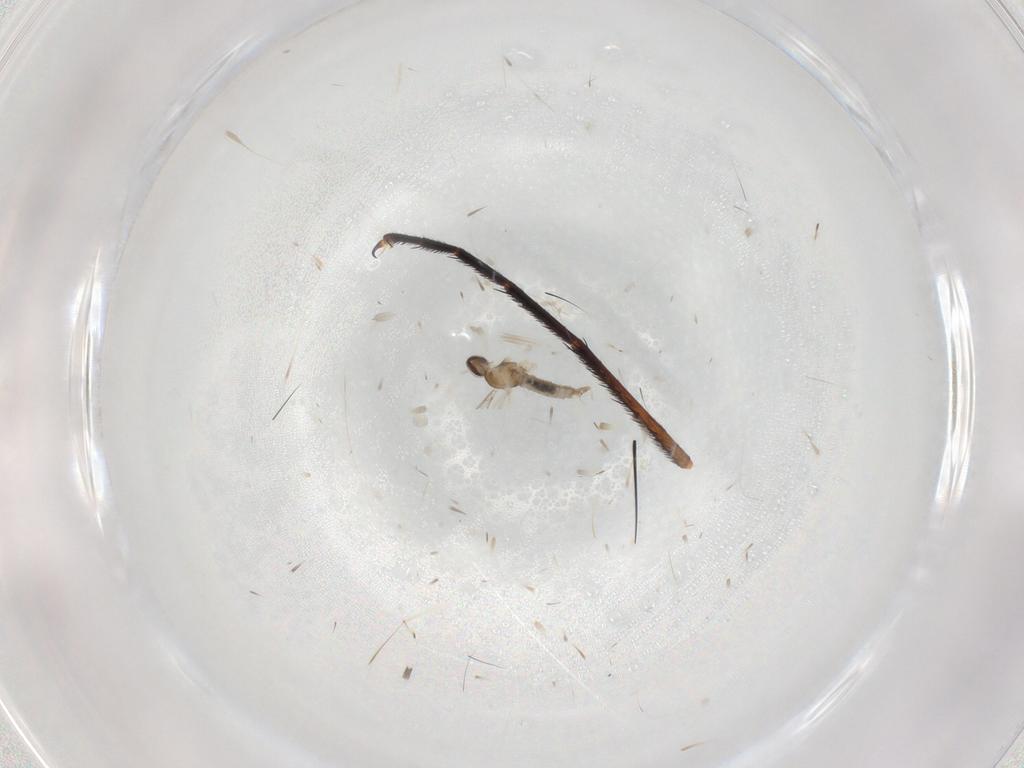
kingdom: Animalia
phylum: Arthropoda
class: Insecta
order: Diptera
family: Cecidomyiidae
